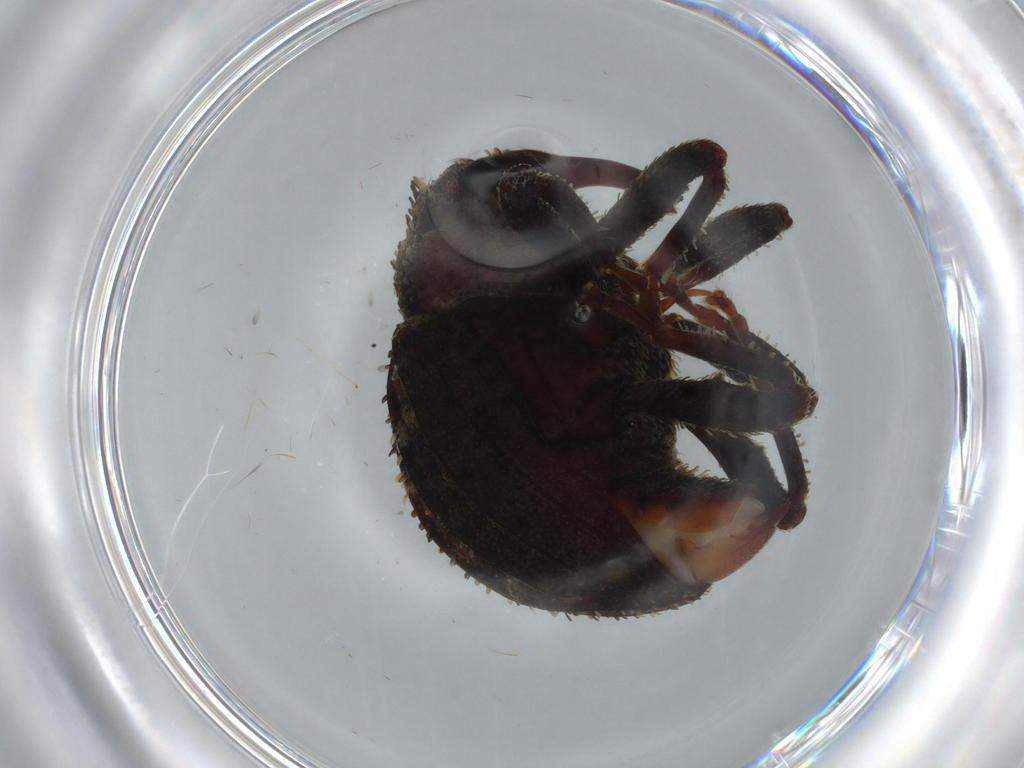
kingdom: Animalia
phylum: Arthropoda
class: Insecta
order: Coleoptera
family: Curculionidae
